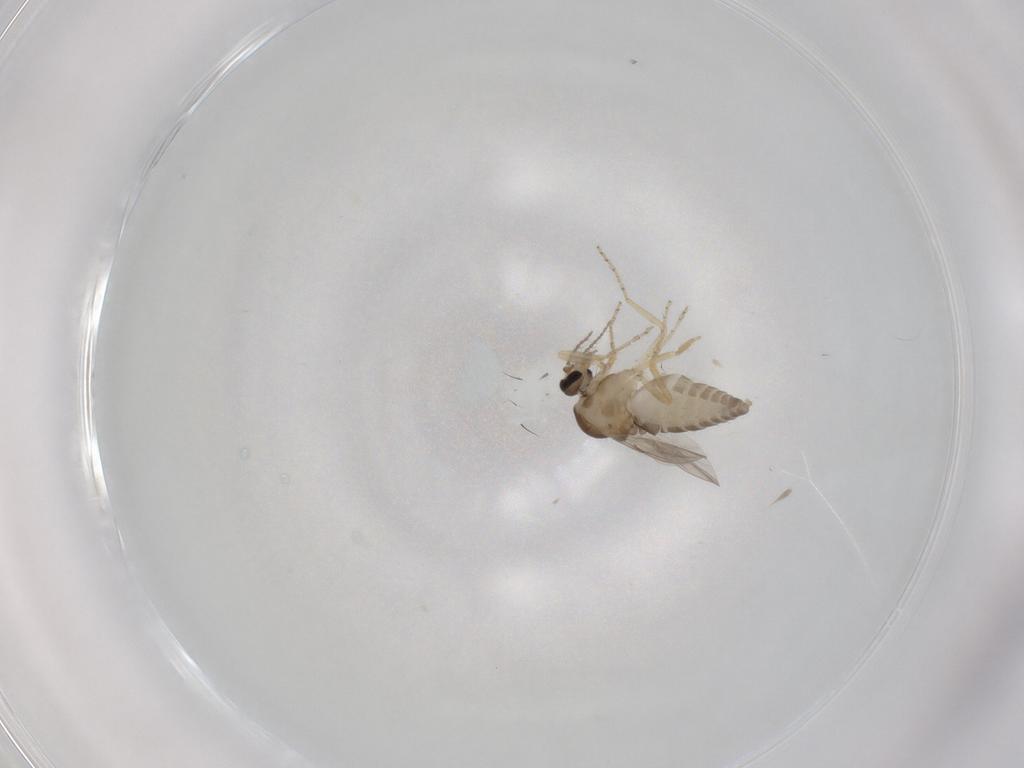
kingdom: Animalia
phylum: Arthropoda
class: Insecta
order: Diptera
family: Ceratopogonidae
